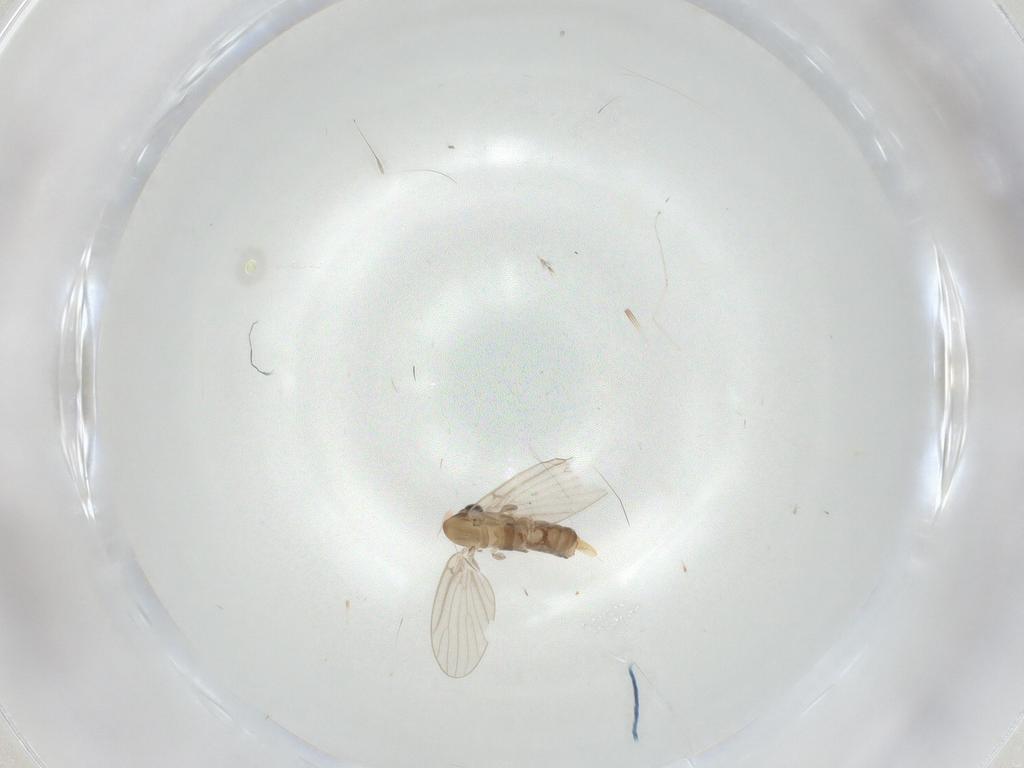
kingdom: Animalia
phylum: Arthropoda
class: Insecta
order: Diptera
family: Psychodidae
